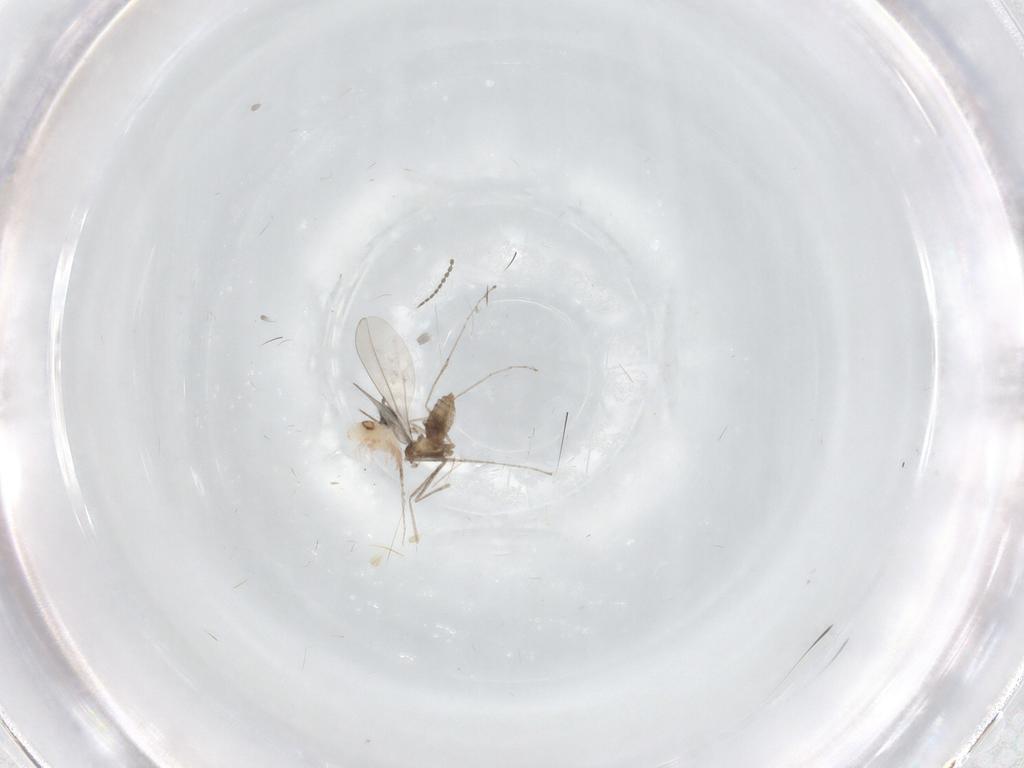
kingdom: Animalia
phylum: Arthropoda
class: Insecta
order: Diptera
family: Cecidomyiidae
